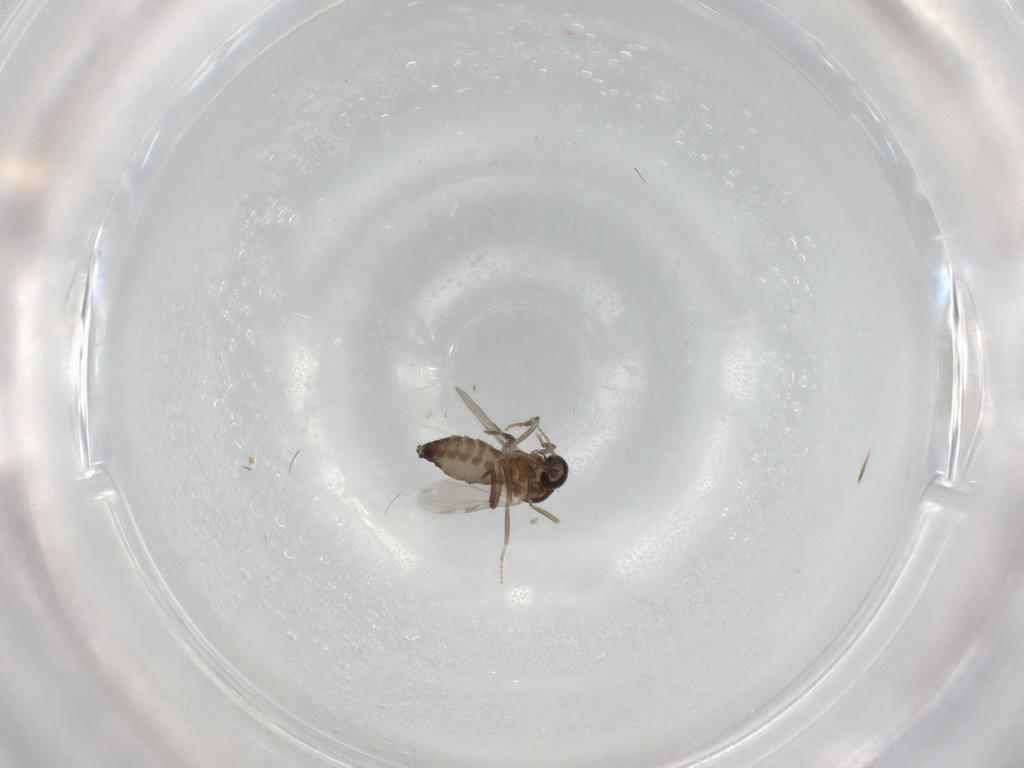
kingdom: Animalia
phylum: Arthropoda
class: Insecta
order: Diptera
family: Ceratopogonidae
